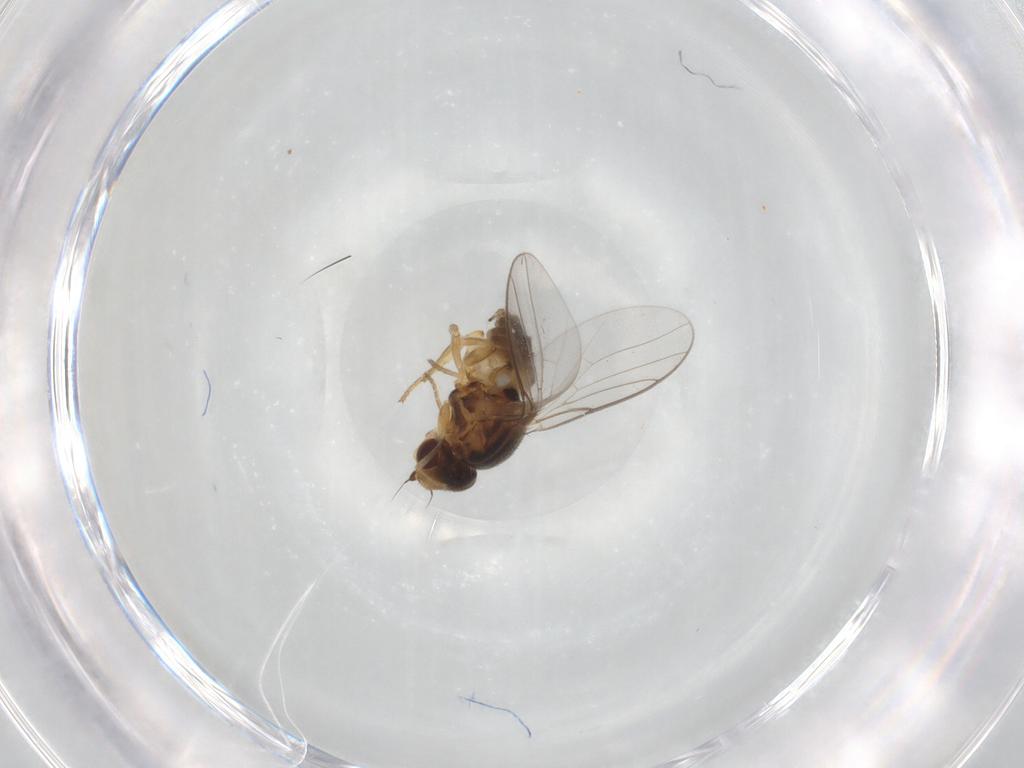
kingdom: Animalia
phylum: Arthropoda
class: Insecta
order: Diptera
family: Chloropidae
